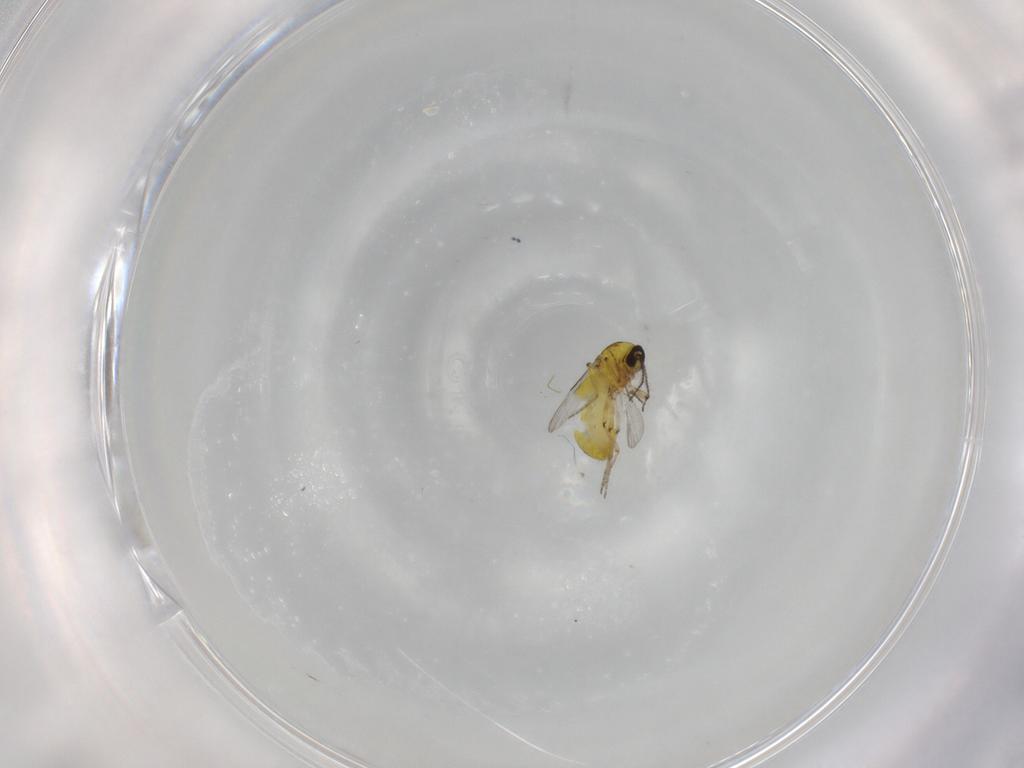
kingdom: Animalia
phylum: Arthropoda
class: Insecta
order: Diptera
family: Ceratopogonidae
